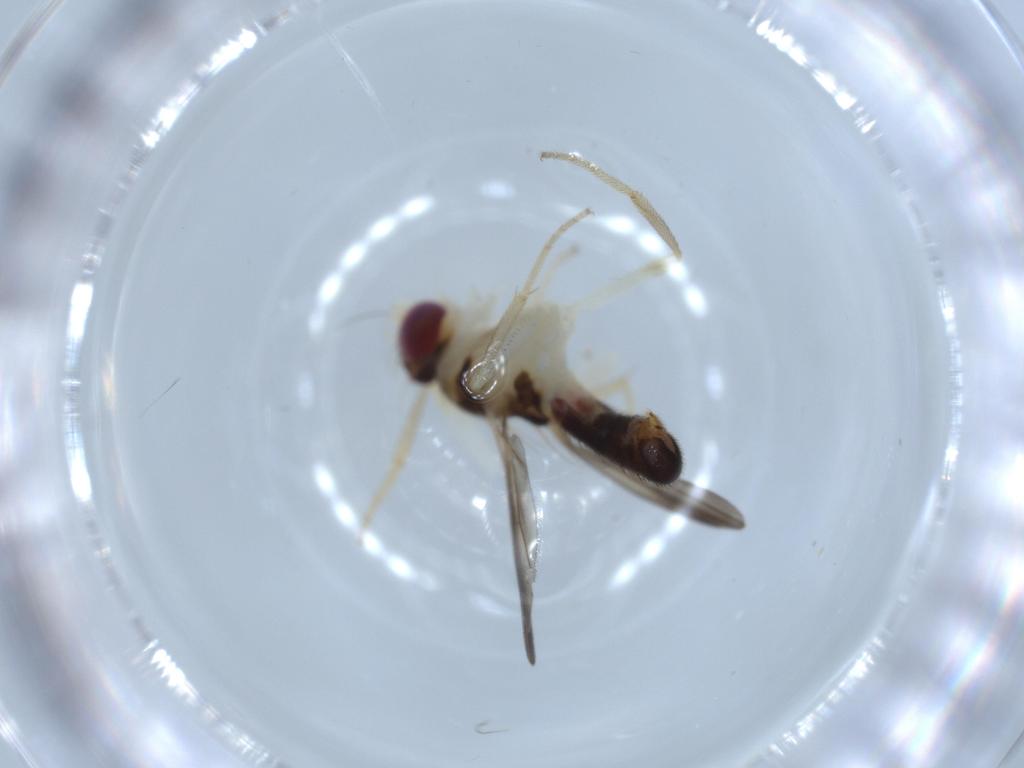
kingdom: Animalia
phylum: Arthropoda
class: Insecta
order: Diptera
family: Clusiidae
